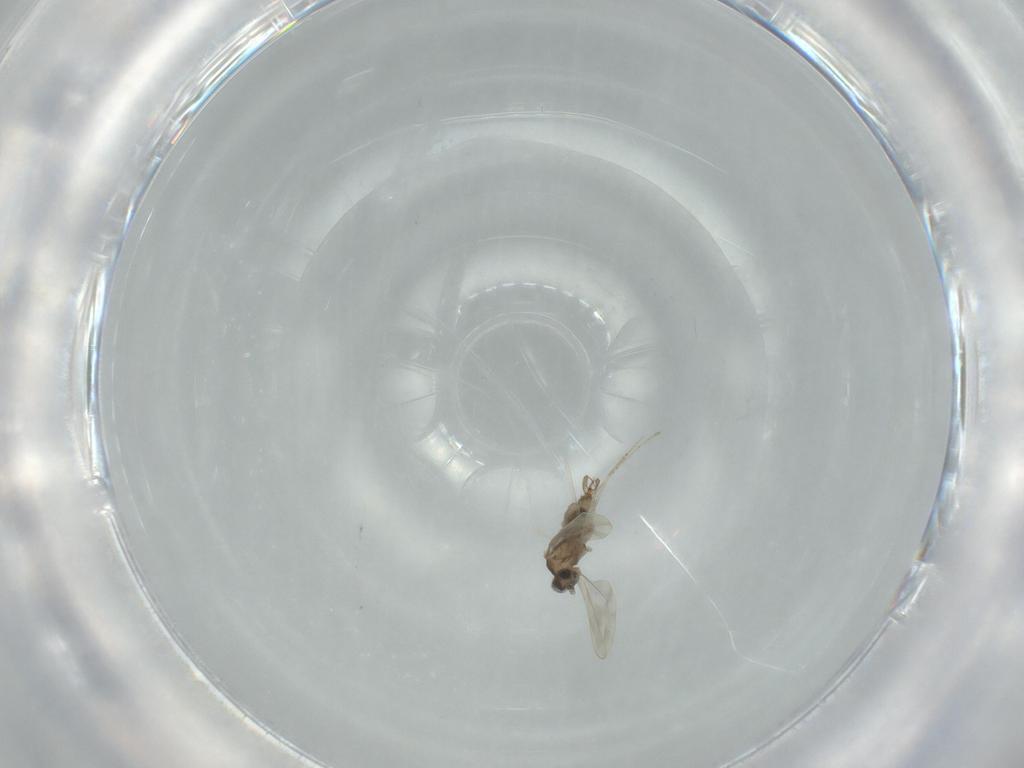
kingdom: Animalia
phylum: Arthropoda
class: Insecta
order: Diptera
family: Cecidomyiidae
